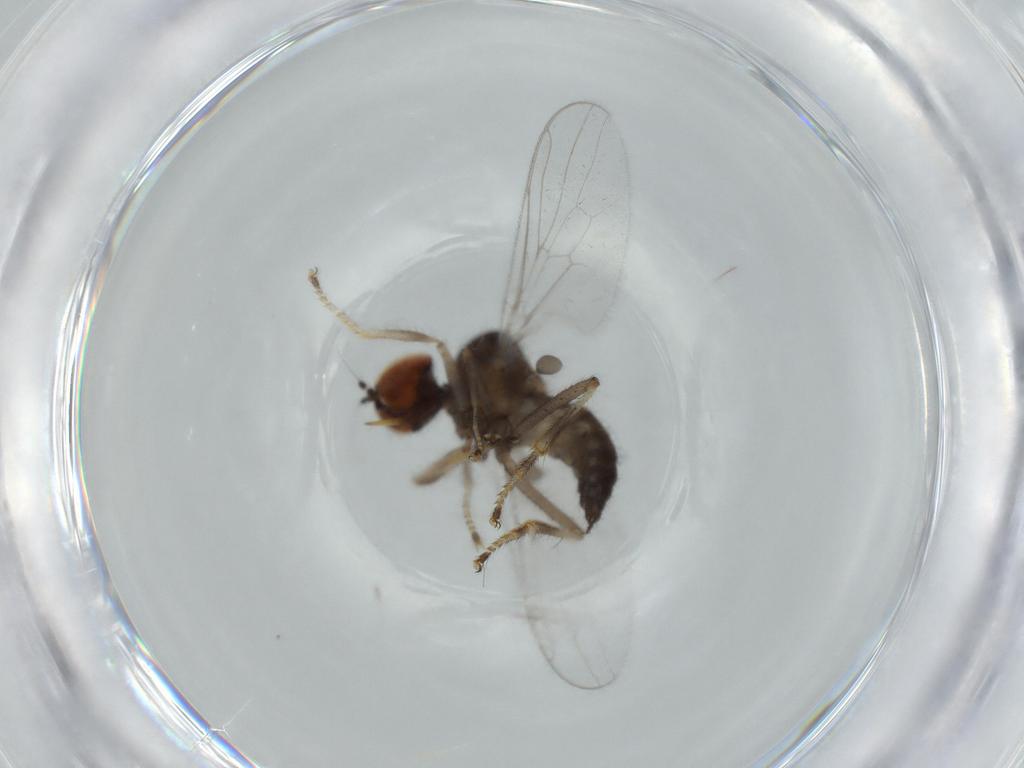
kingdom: Animalia
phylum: Arthropoda
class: Insecta
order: Diptera
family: Hybotidae
